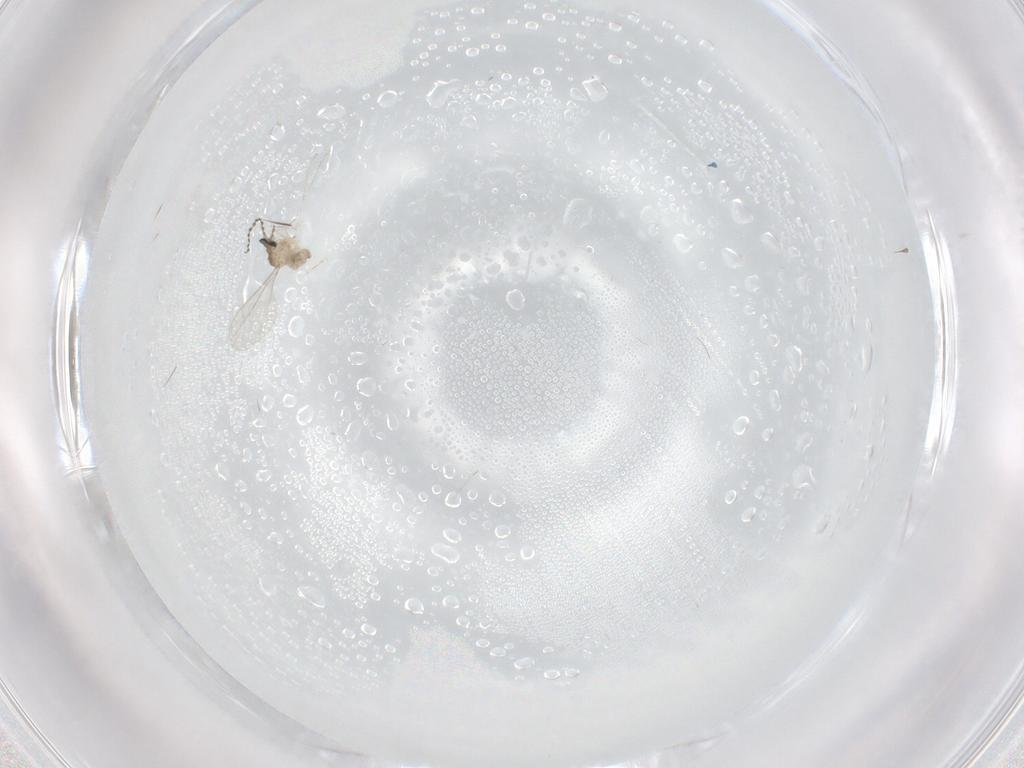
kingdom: Animalia
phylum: Arthropoda
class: Insecta
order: Diptera
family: Cecidomyiidae
